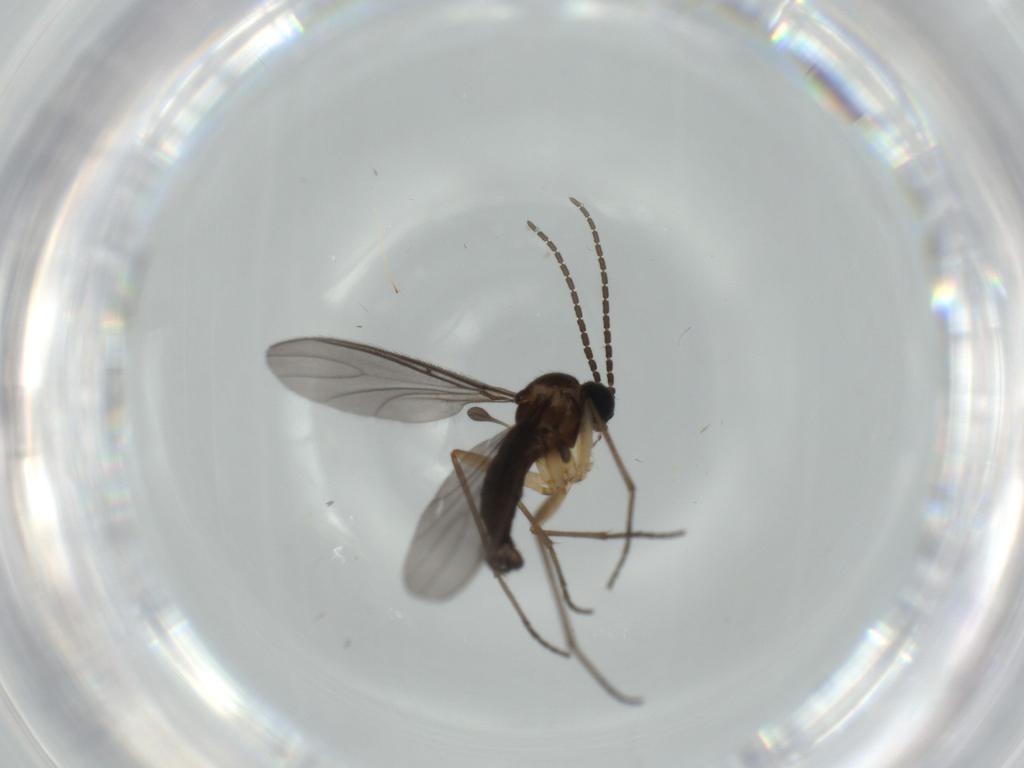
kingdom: Animalia
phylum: Arthropoda
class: Insecta
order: Diptera
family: Sciaridae
